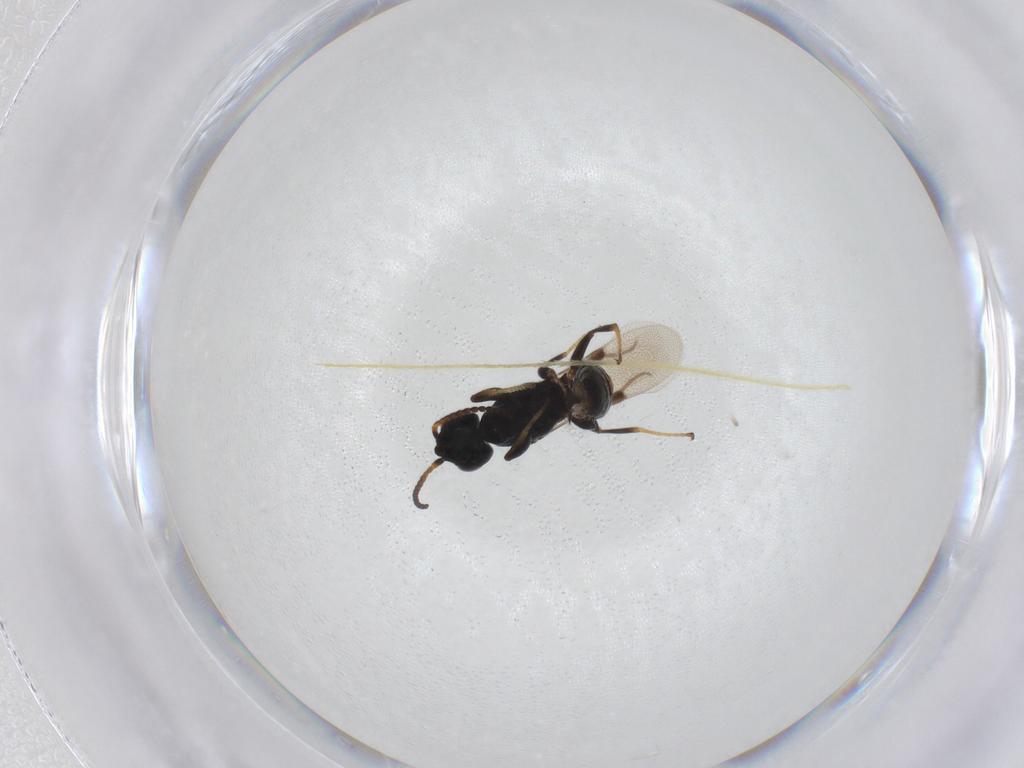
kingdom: Animalia
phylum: Arthropoda
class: Insecta
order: Hymenoptera
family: Bethylidae
